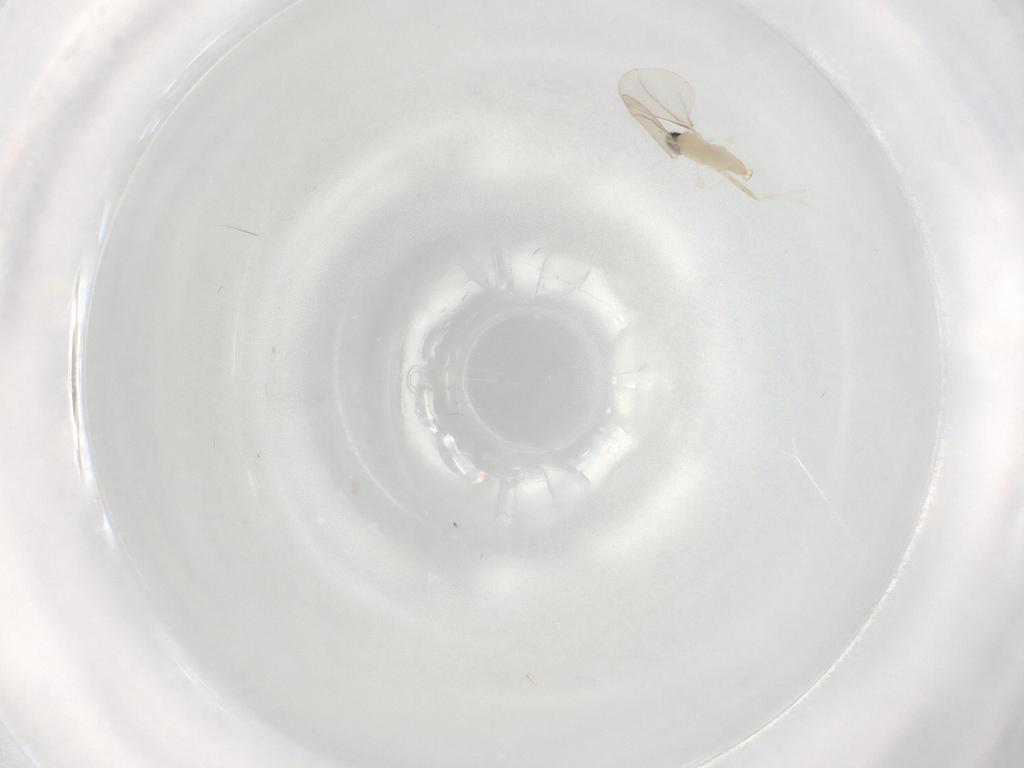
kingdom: Animalia
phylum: Arthropoda
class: Insecta
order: Diptera
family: Cecidomyiidae
